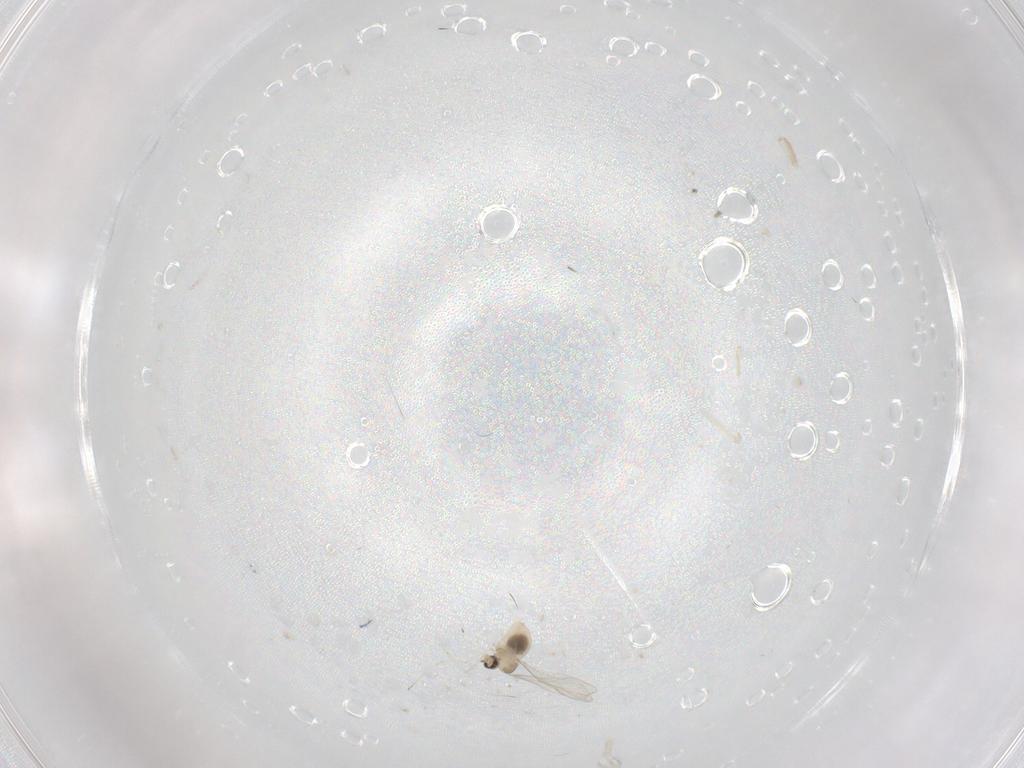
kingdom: Animalia
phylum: Arthropoda
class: Insecta
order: Diptera
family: Cecidomyiidae
